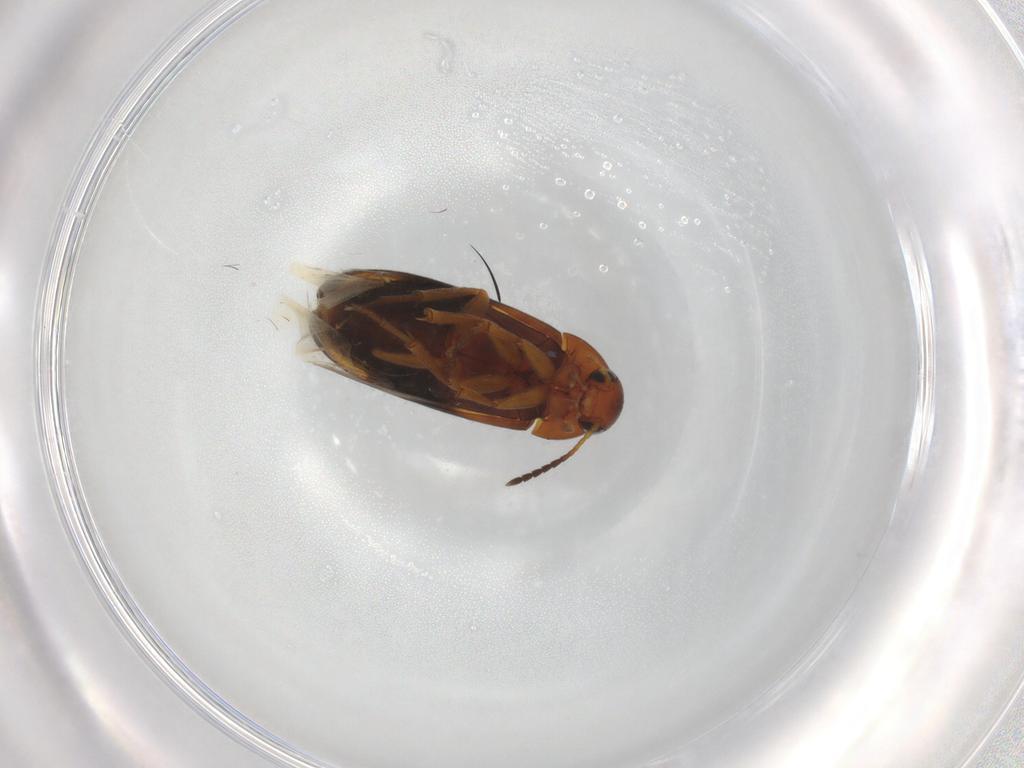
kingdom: Animalia
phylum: Arthropoda
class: Insecta
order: Coleoptera
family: Scraptiidae
